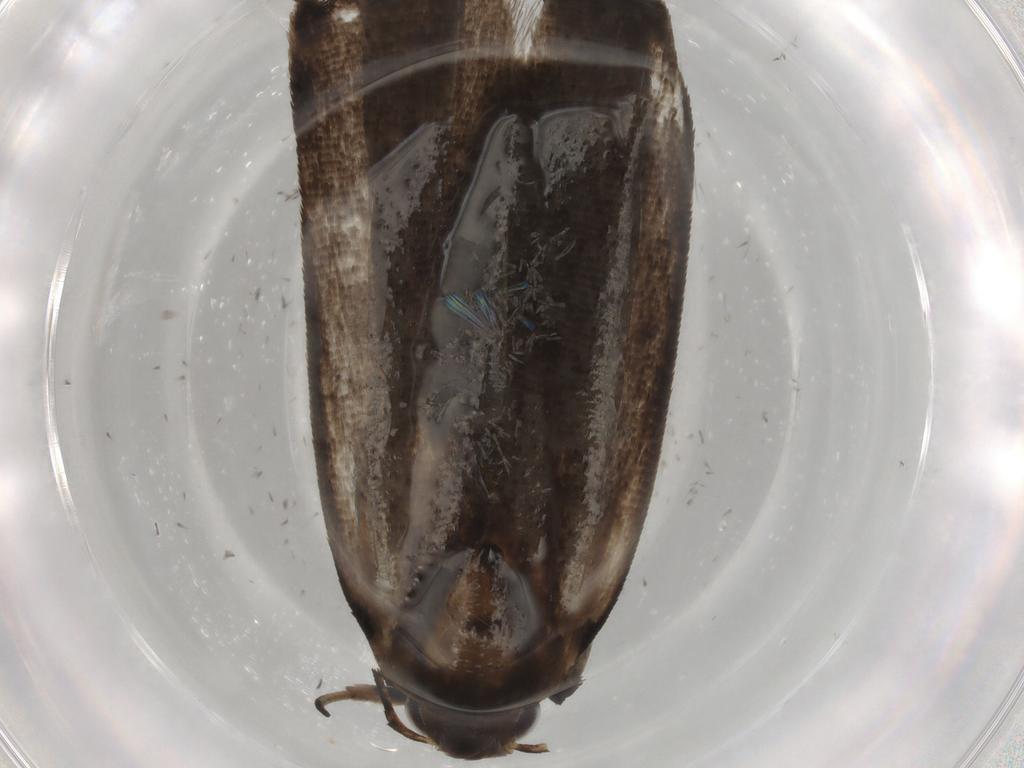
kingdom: Animalia
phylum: Arthropoda
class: Insecta
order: Lepidoptera
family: Gelechiidae
